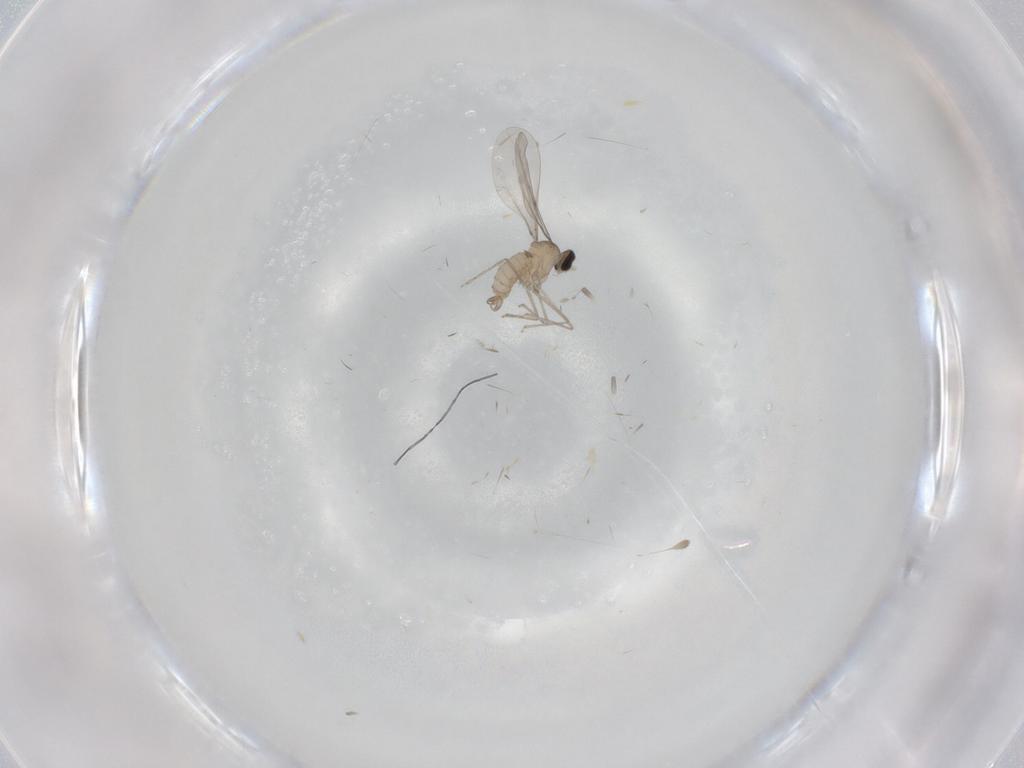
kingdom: Animalia
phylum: Arthropoda
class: Insecta
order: Diptera
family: Cecidomyiidae
